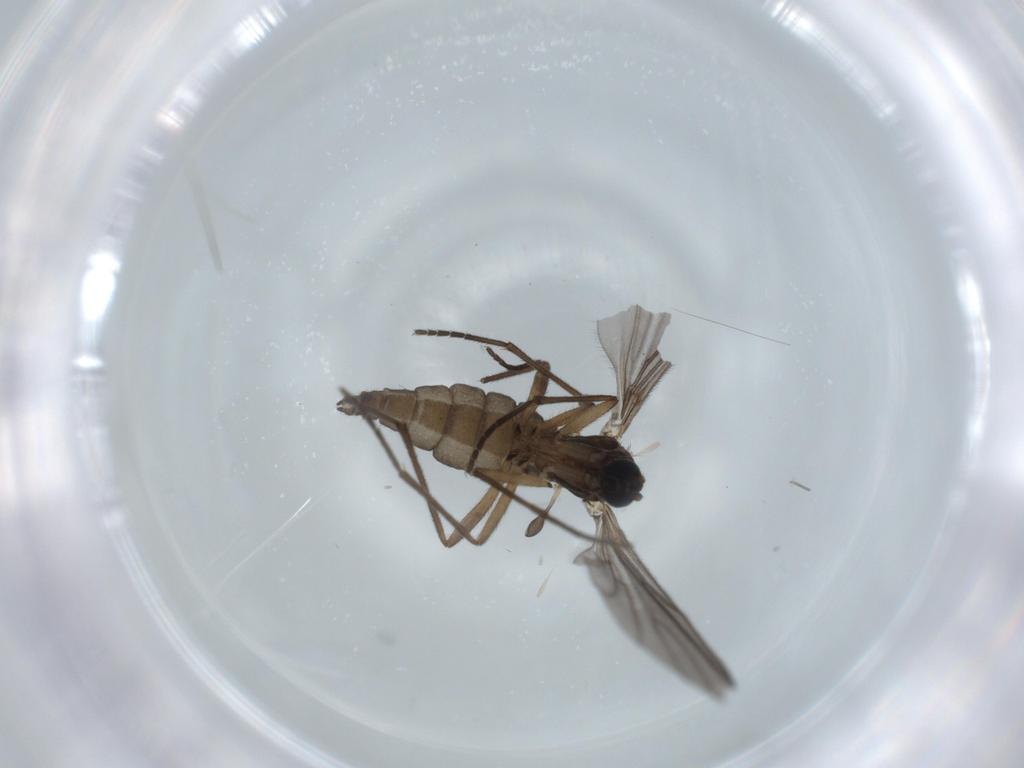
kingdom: Animalia
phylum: Arthropoda
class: Insecta
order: Diptera
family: Sciaridae
